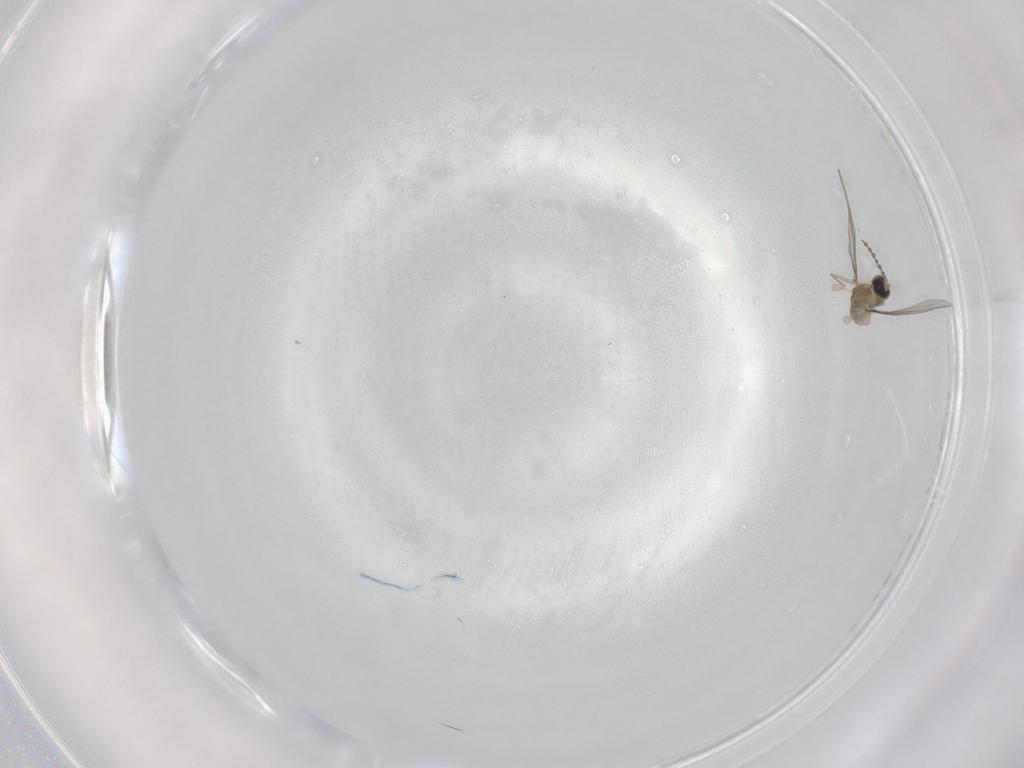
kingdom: Animalia
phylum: Arthropoda
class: Insecta
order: Diptera
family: Cecidomyiidae
